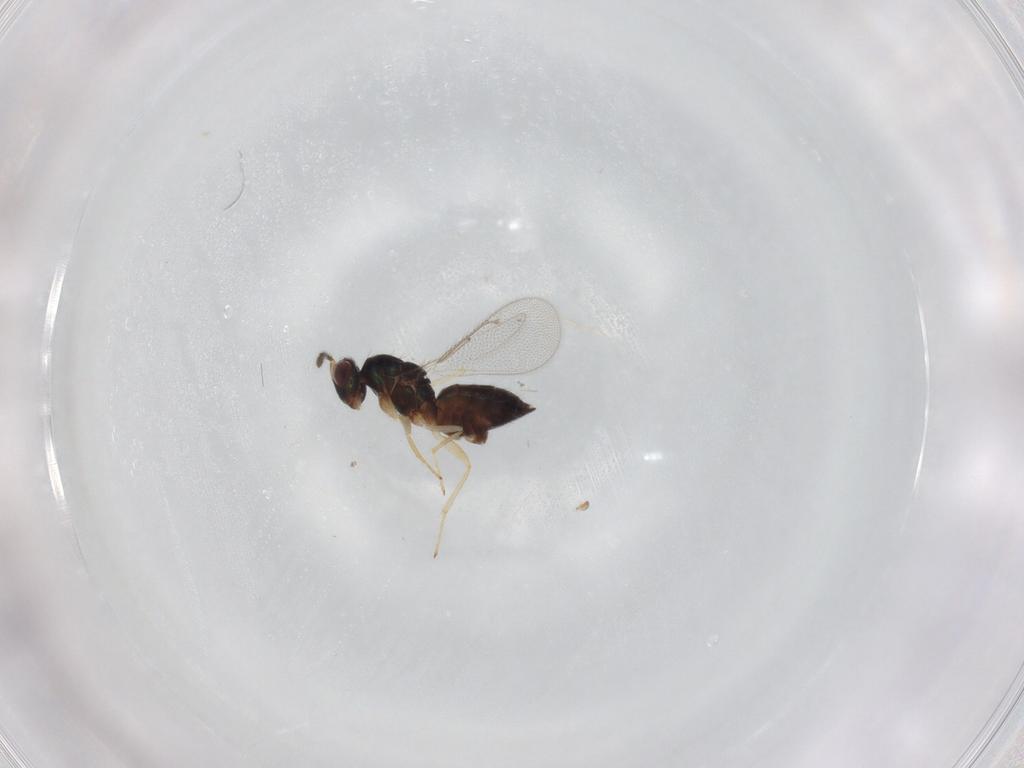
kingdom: Animalia
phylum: Arthropoda
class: Insecta
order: Hymenoptera
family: Eulophidae
